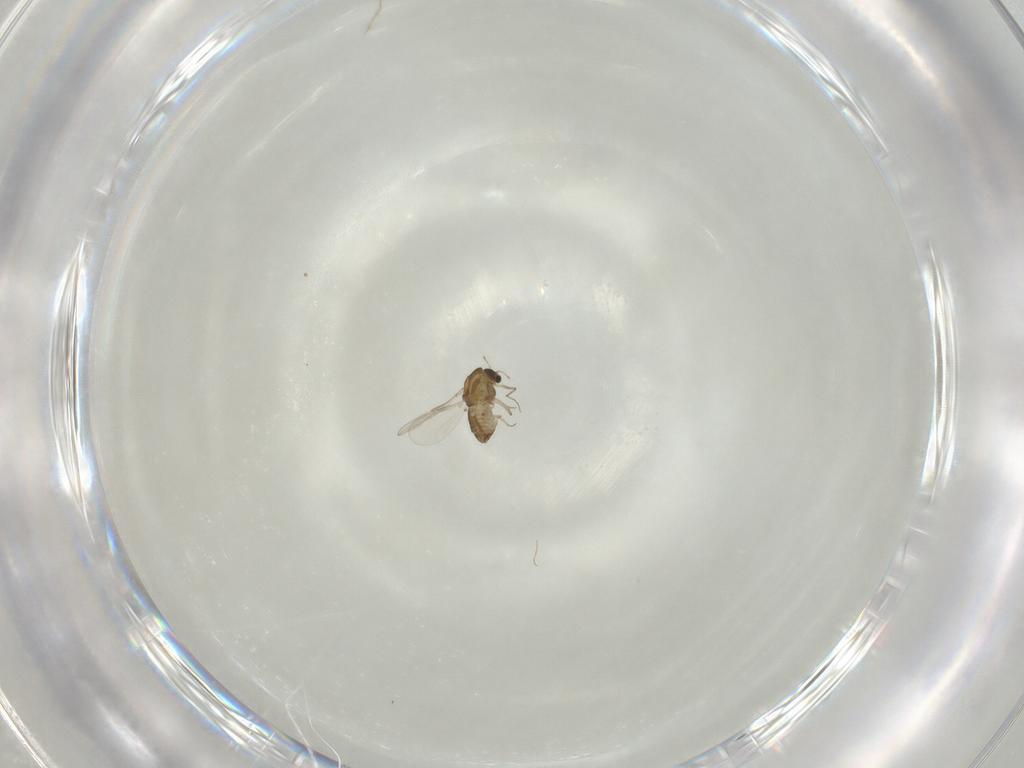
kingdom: Animalia
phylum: Arthropoda
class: Insecta
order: Diptera
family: Chironomidae
